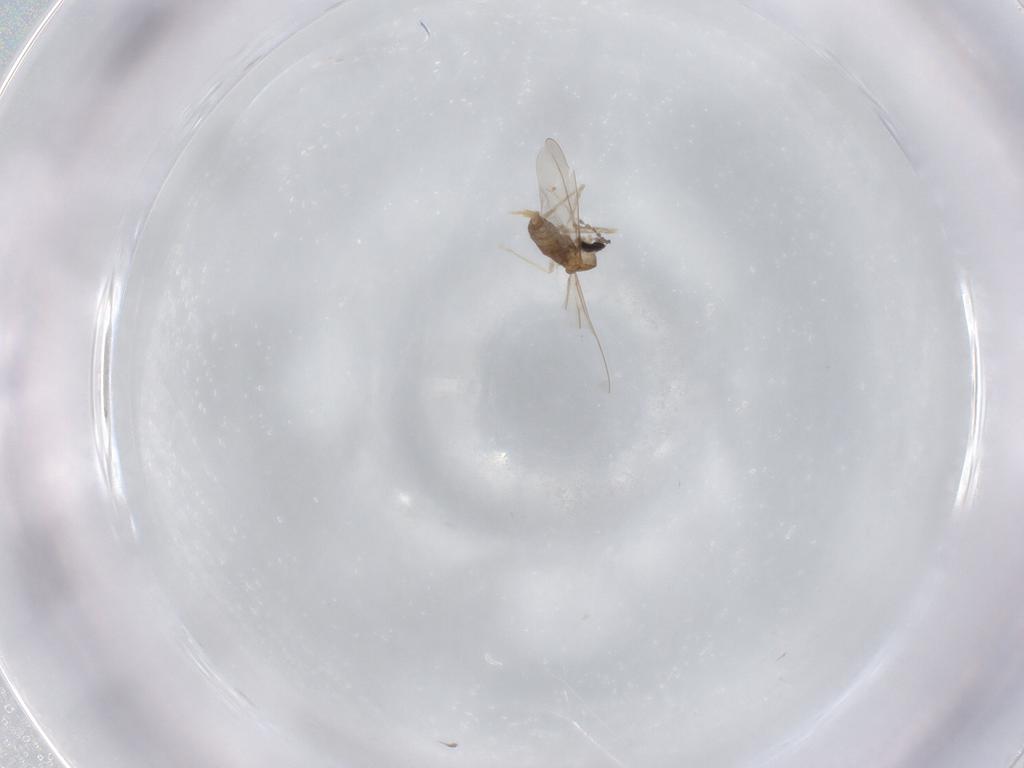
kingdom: Animalia
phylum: Arthropoda
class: Insecta
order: Diptera
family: Cecidomyiidae
